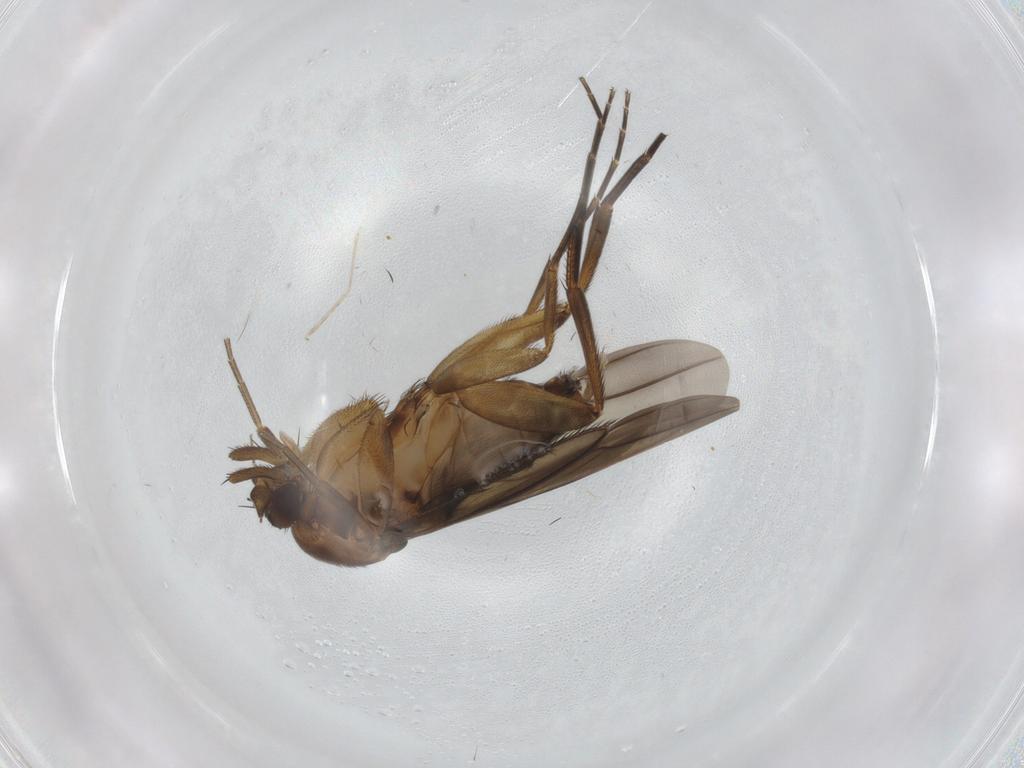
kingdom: Animalia
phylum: Arthropoda
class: Insecta
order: Diptera
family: Phoridae
